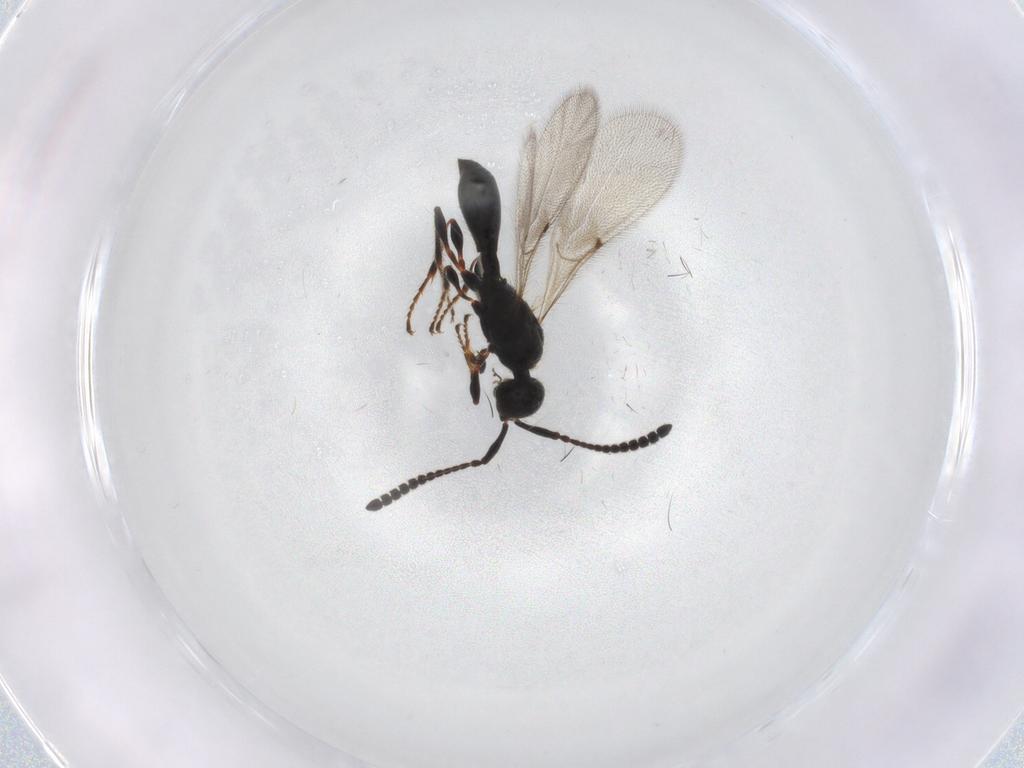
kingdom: Animalia
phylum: Arthropoda
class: Insecta
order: Hymenoptera
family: Diapriidae
